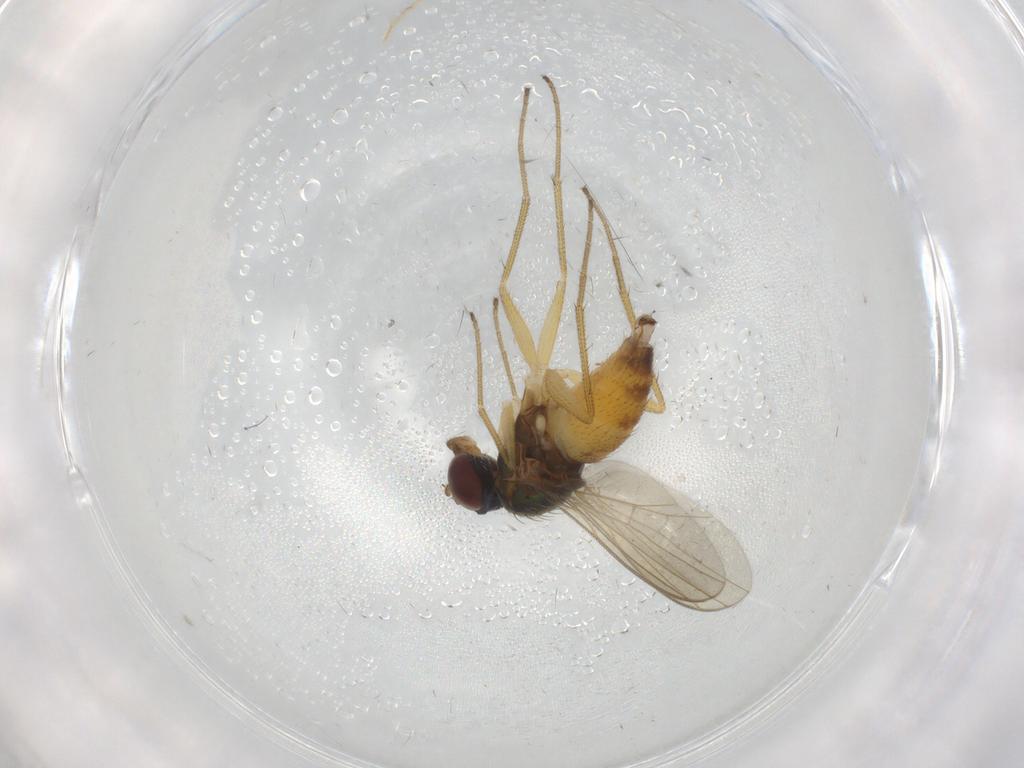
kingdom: Animalia
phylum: Arthropoda
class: Insecta
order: Diptera
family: Dolichopodidae
